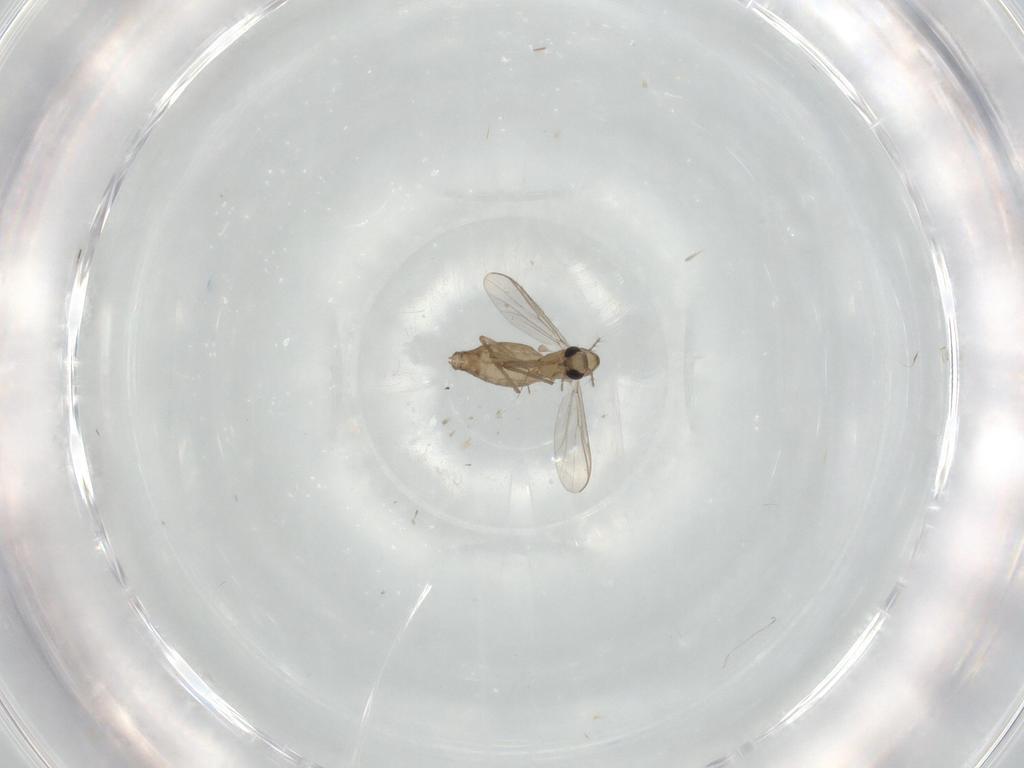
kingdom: Animalia
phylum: Arthropoda
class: Insecta
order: Diptera
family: Chironomidae
